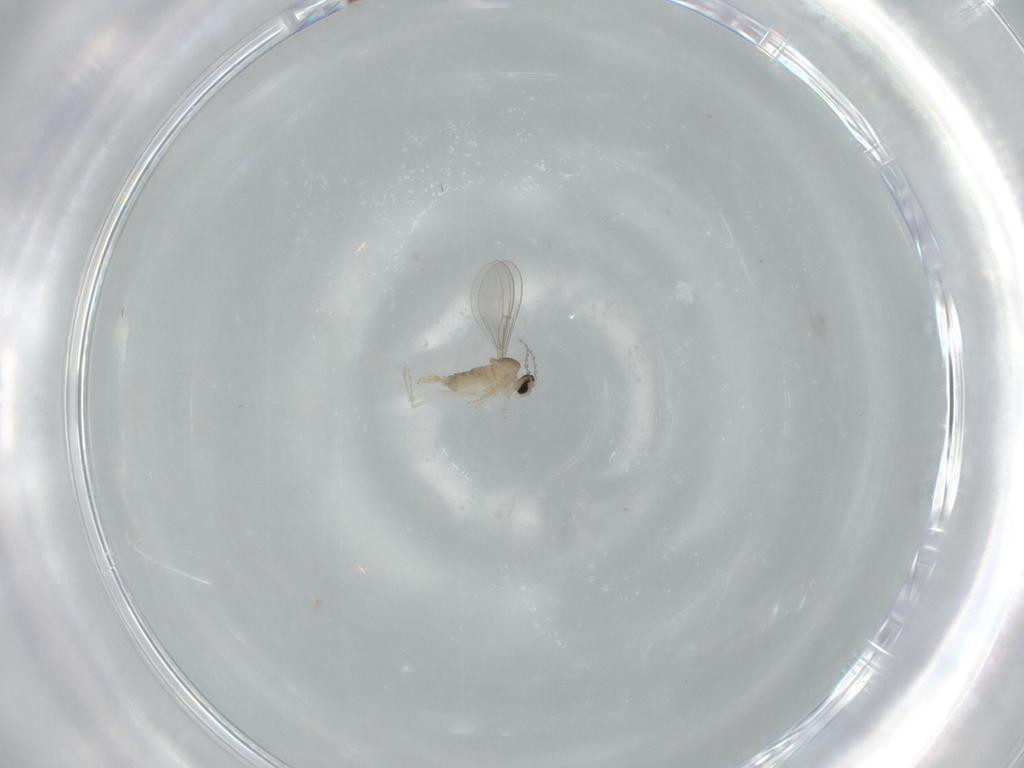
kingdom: Animalia
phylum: Arthropoda
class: Insecta
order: Diptera
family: Cecidomyiidae
